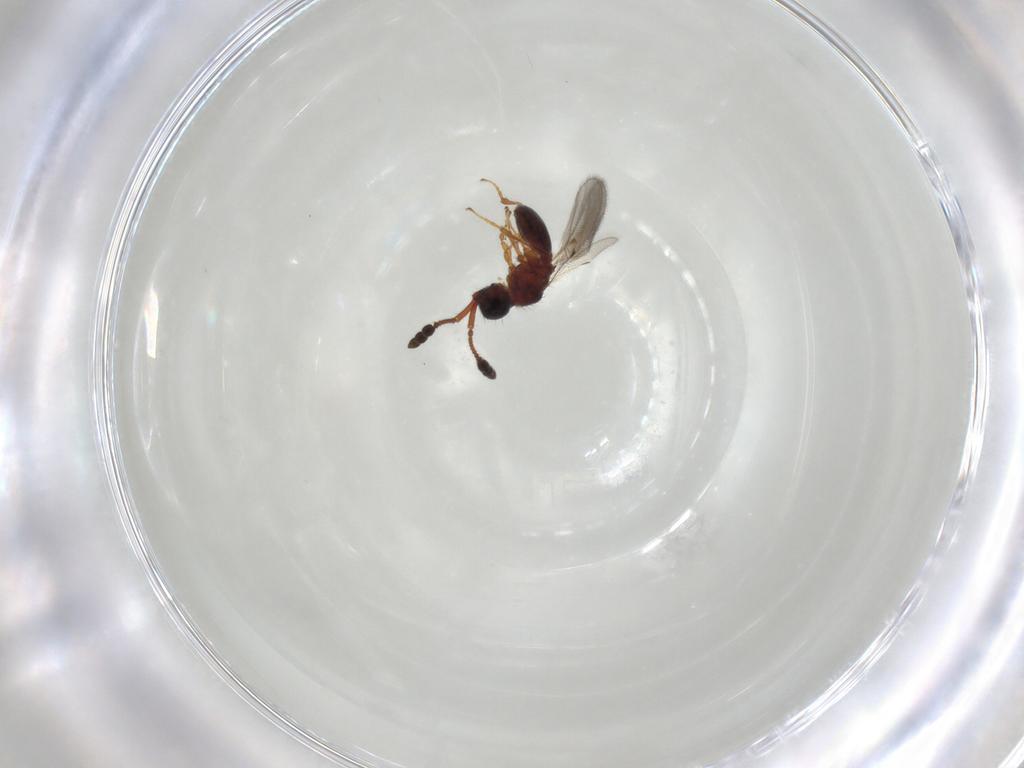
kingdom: Animalia
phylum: Arthropoda
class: Insecta
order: Hymenoptera
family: Diapriidae
